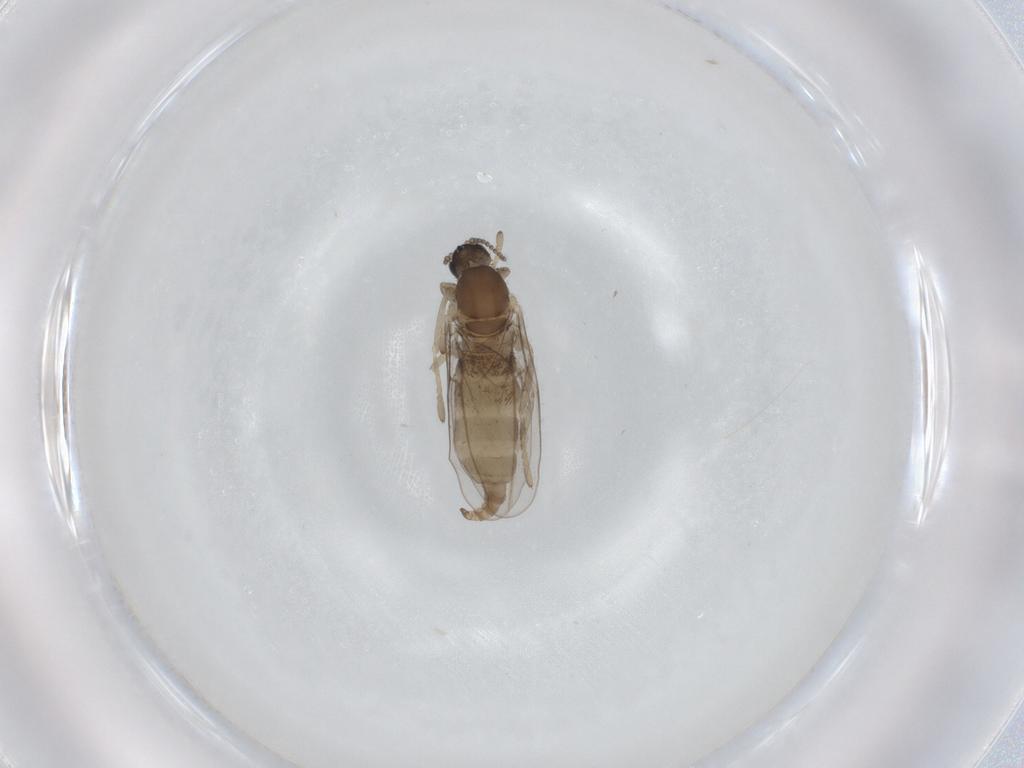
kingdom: Animalia
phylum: Arthropoda
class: Insecta
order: Diptera
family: Cecidomyiidae
